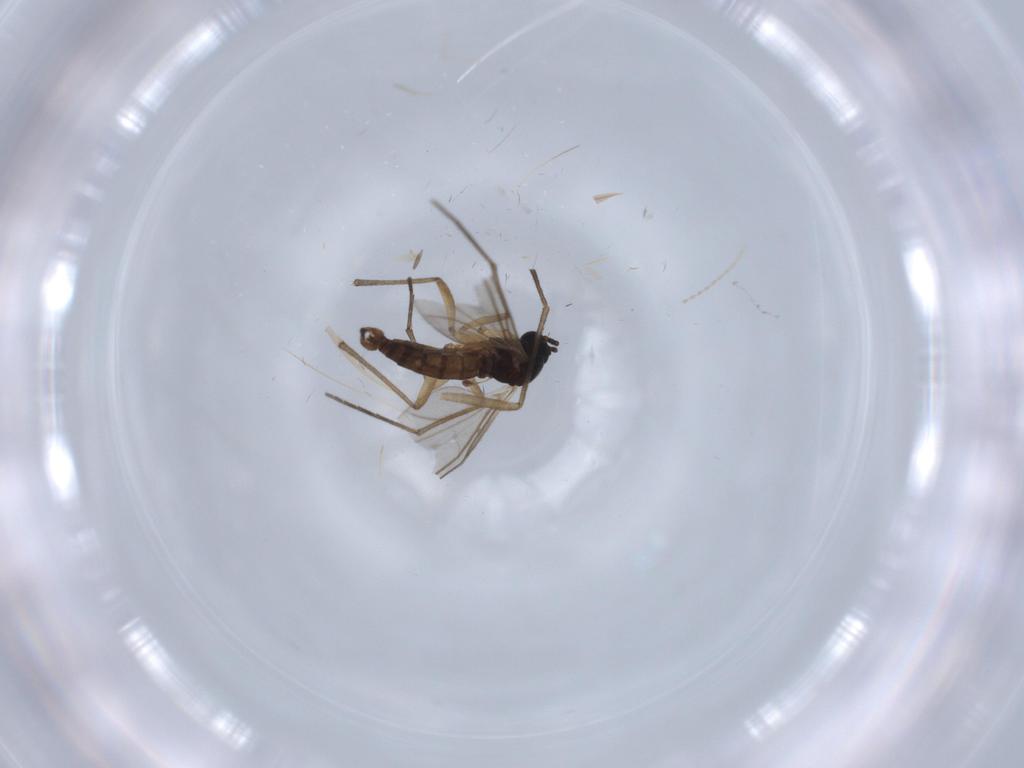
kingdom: Animalia
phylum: Arthropoda
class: Insecta
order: Diptera
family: Sciaridae
